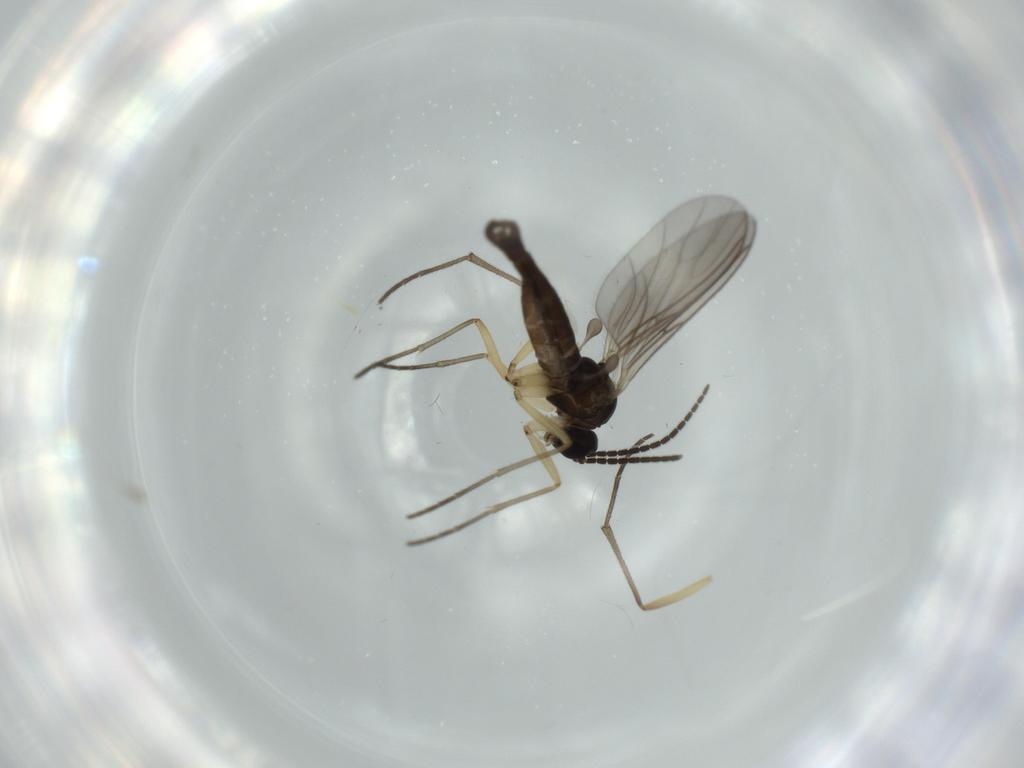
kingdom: Animalia
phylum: Arthropoda
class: Insecta
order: Diptera
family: Sciaridae
